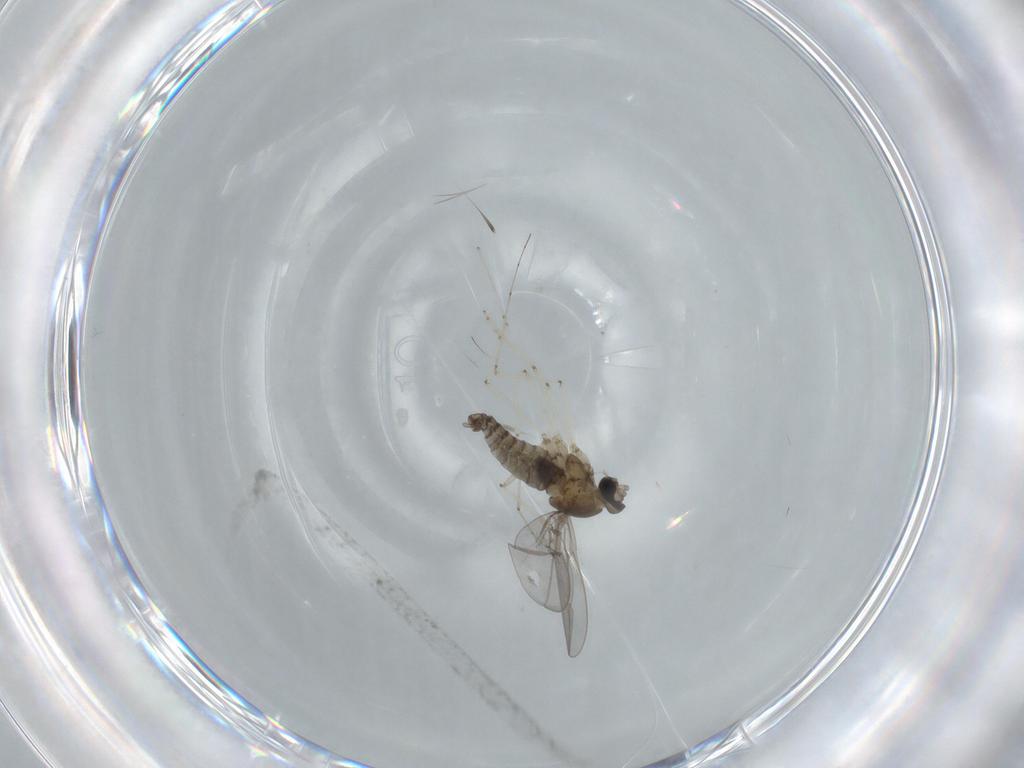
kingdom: Animalia
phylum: Arthropoda
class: Insecta
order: Diptera
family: Cecidomyiidae
